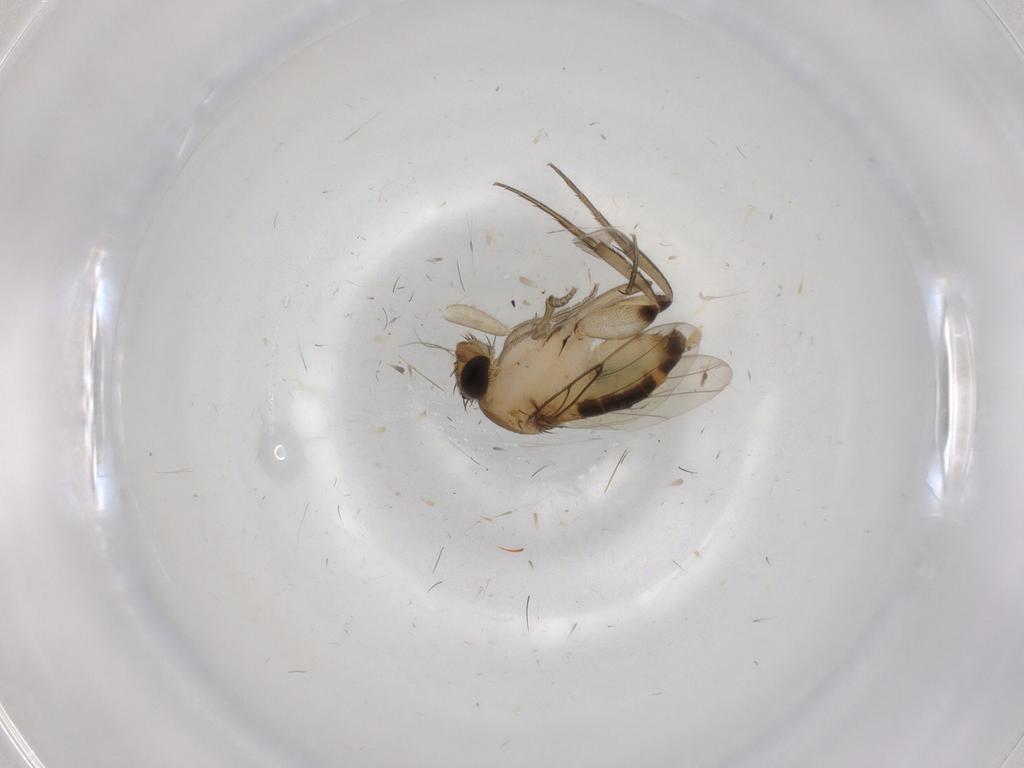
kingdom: Animalia
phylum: Arthropoda
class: Insecta
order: Diptera
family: Phoridae
